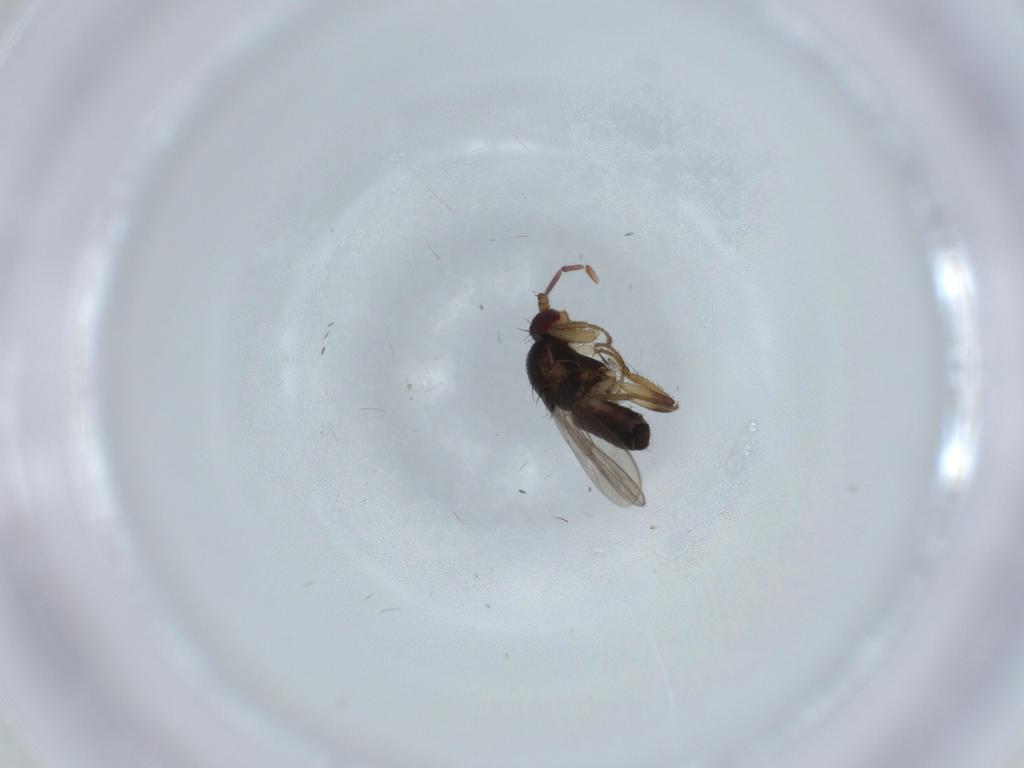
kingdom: Animalia
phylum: Arthropoda
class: Insecta
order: Diptera
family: Sphaeroceridae
